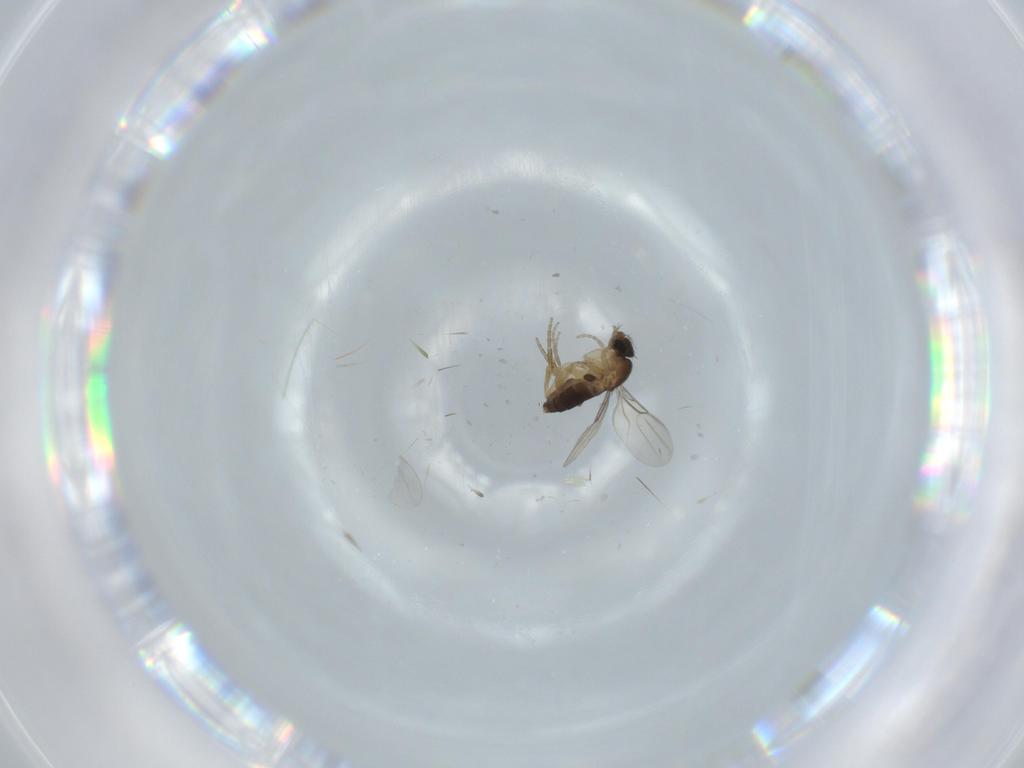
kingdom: Animalia
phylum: Arthropoda
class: Insecta
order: Diptera
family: Phoridae
